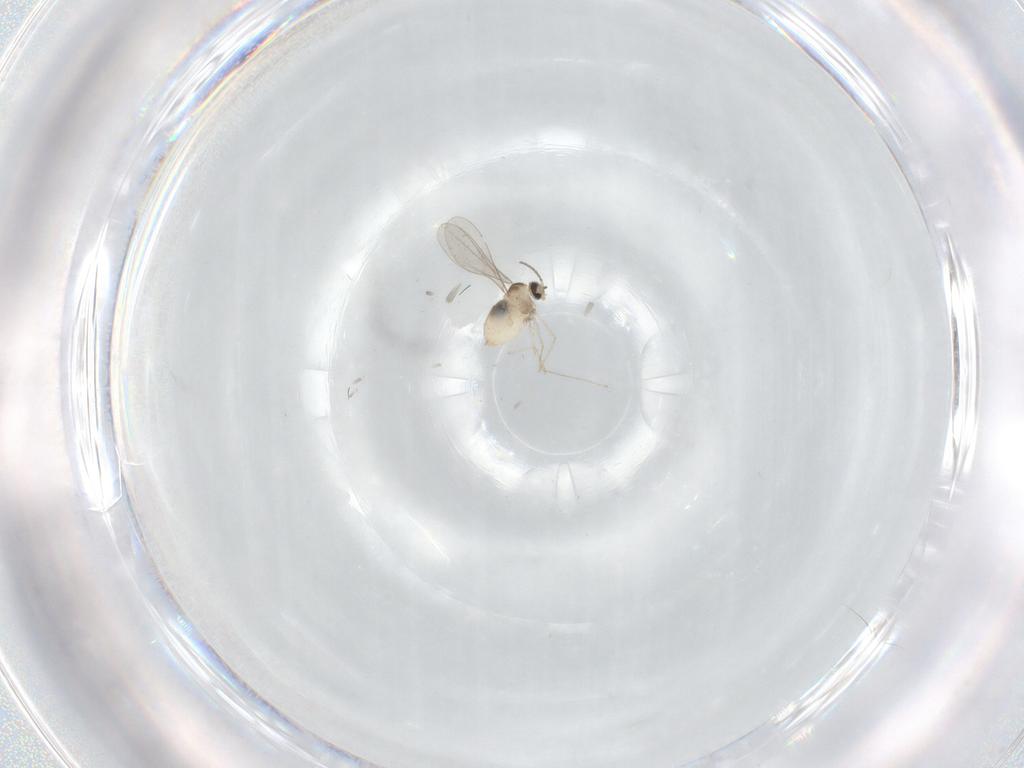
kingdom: Animalia
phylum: Arthropoda
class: Insecta
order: Diptera
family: Cecidomyiidae
